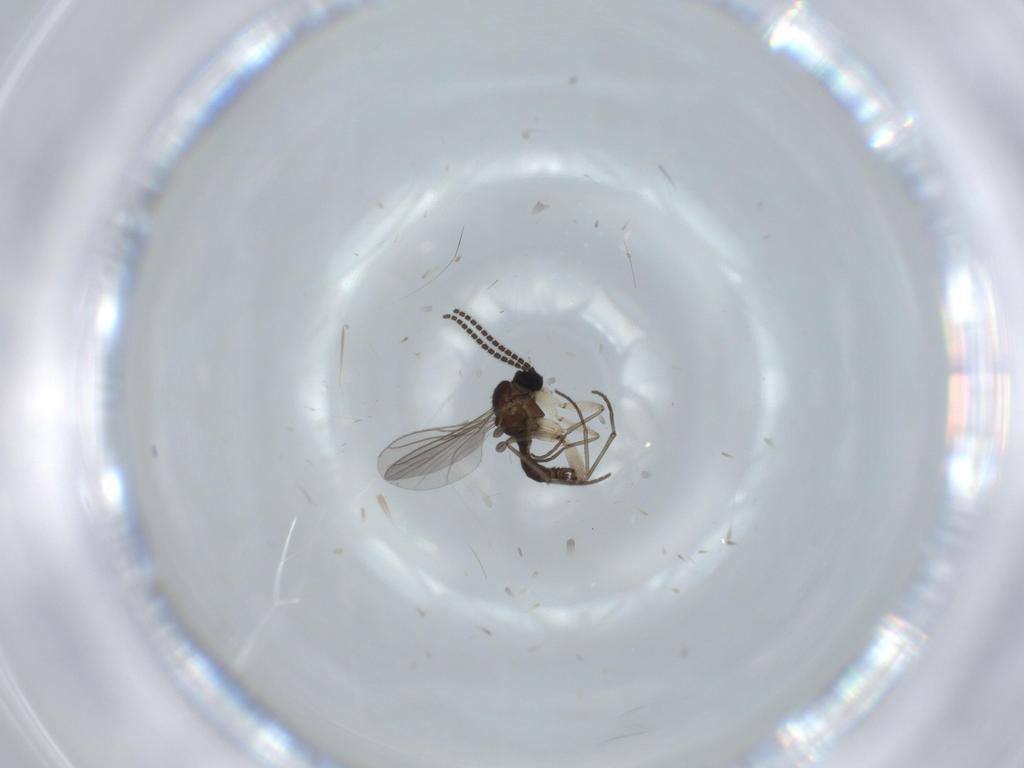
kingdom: Animalia
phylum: Arthropoda
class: Insecta
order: Diptera
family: Sciaridae
